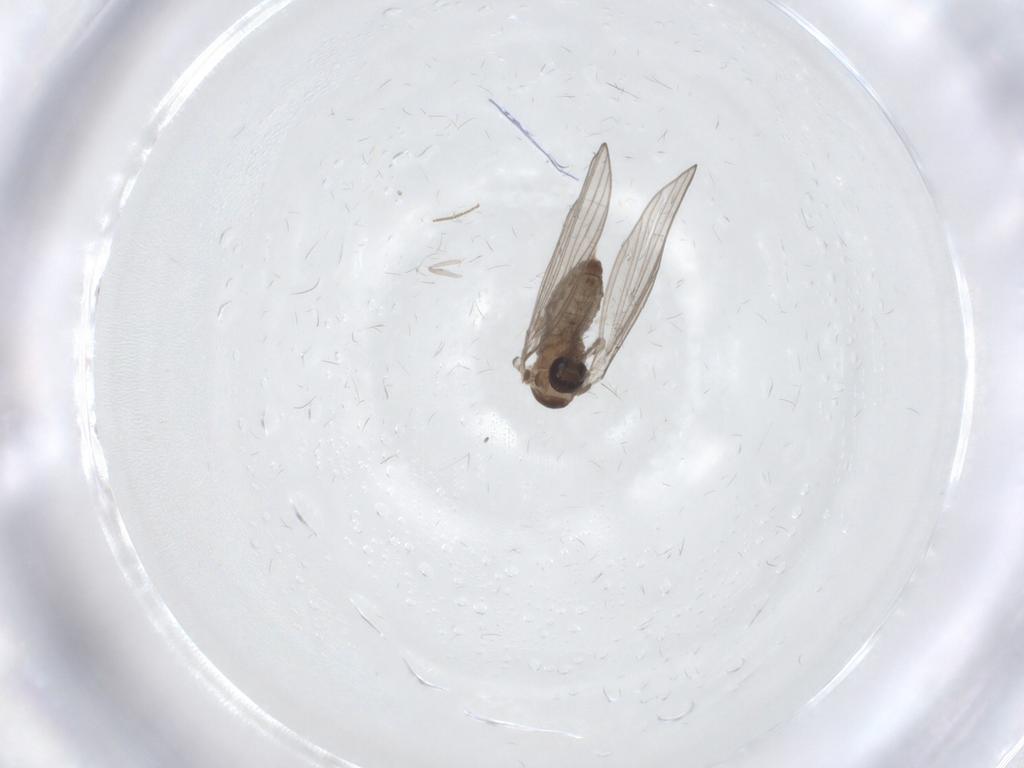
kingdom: Animalia
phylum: Arthropoda
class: Insecta
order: Diptera
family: Cecidomyiidae
